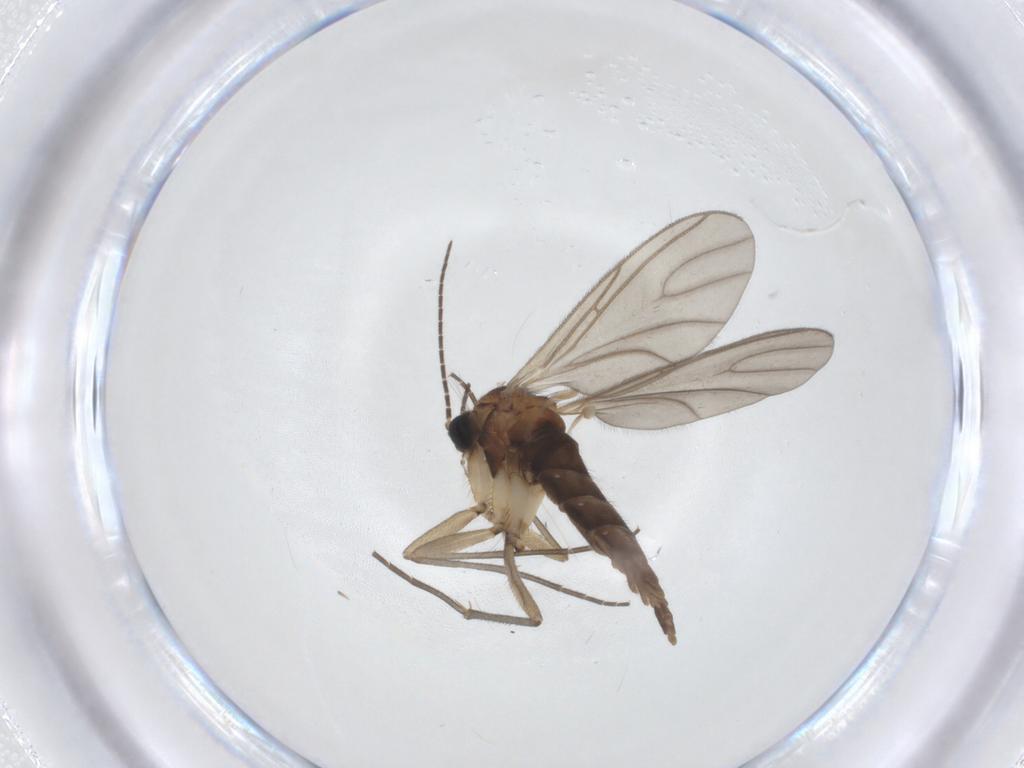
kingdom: Animalia
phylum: Arthropoda
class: Insecta
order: Diptera
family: Sciaridae
